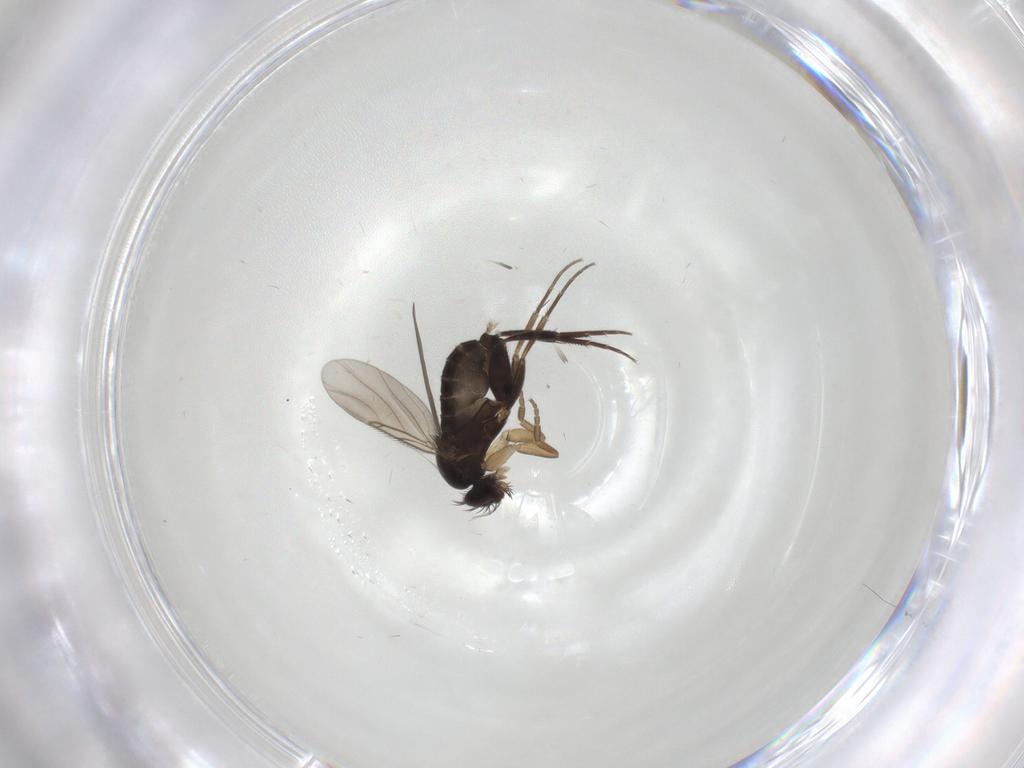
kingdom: Animalia
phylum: Arthropoda
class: Insecta
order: Diptera
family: Phoridae
